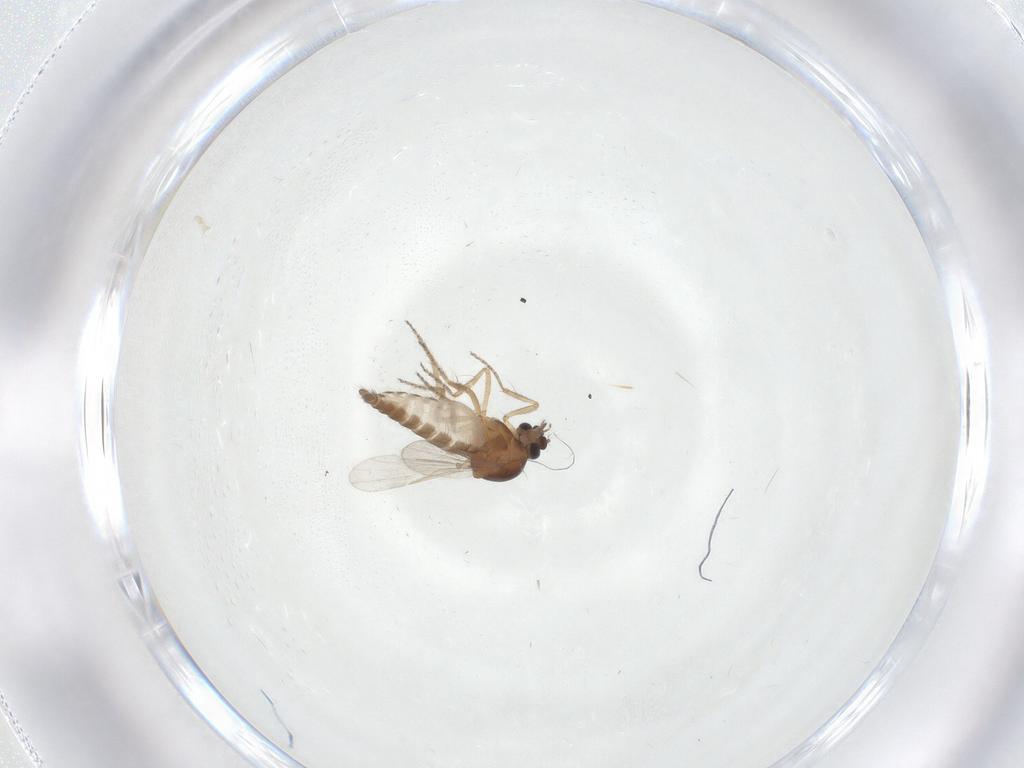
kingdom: Animalia
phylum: Arthropoda
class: Insecta
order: Diptera
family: Ceratopogonidae
